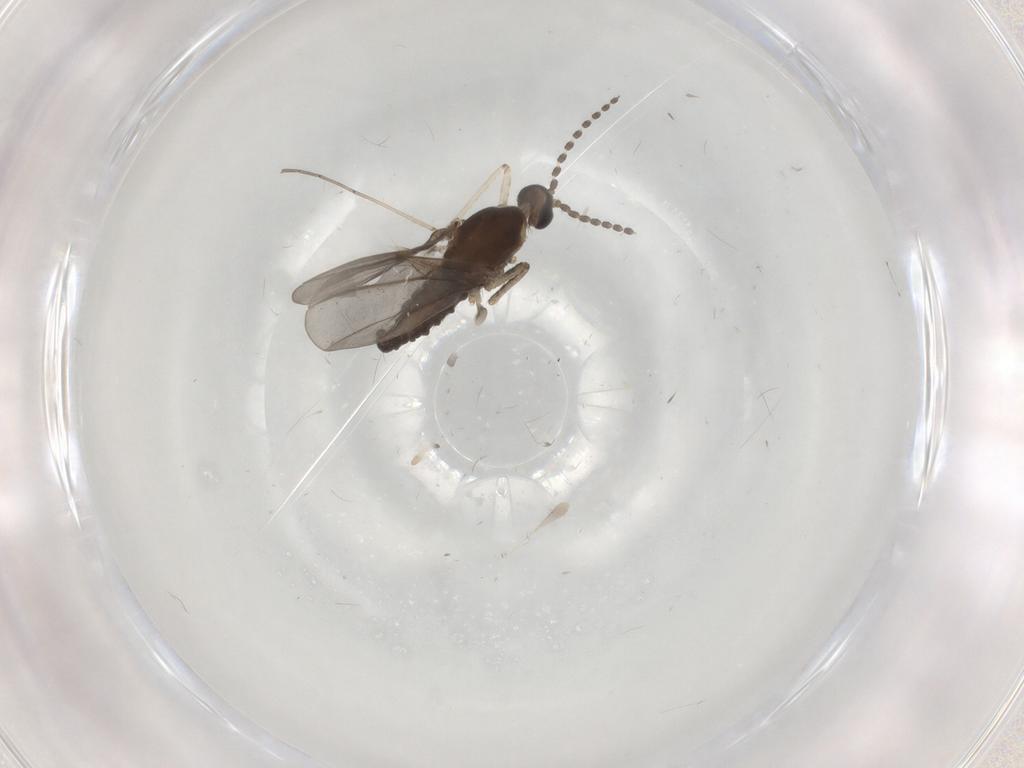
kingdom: Animalia
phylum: Arthropoda
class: Insecta
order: Diptera
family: Cecidomyiidae
